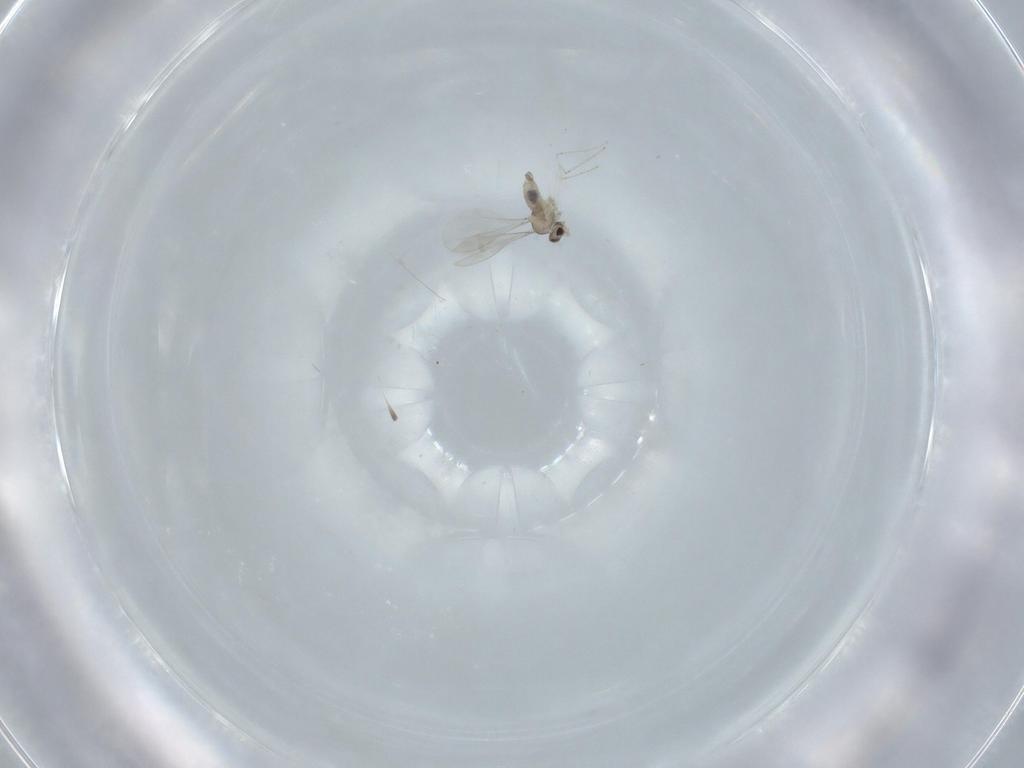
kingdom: Animalia
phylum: Arthropoda
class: Insecta
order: Diptera
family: Cecidomyiidae
